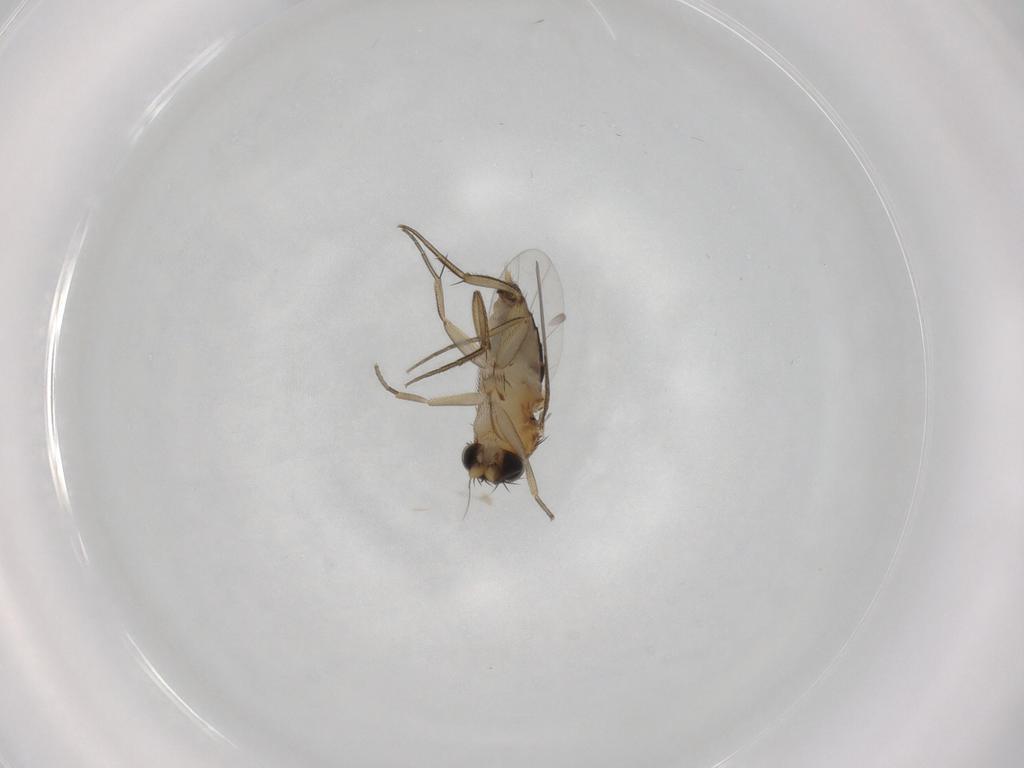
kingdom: Animalia
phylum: Arthropoda
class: Insecta
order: Diptera
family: Phoridae
